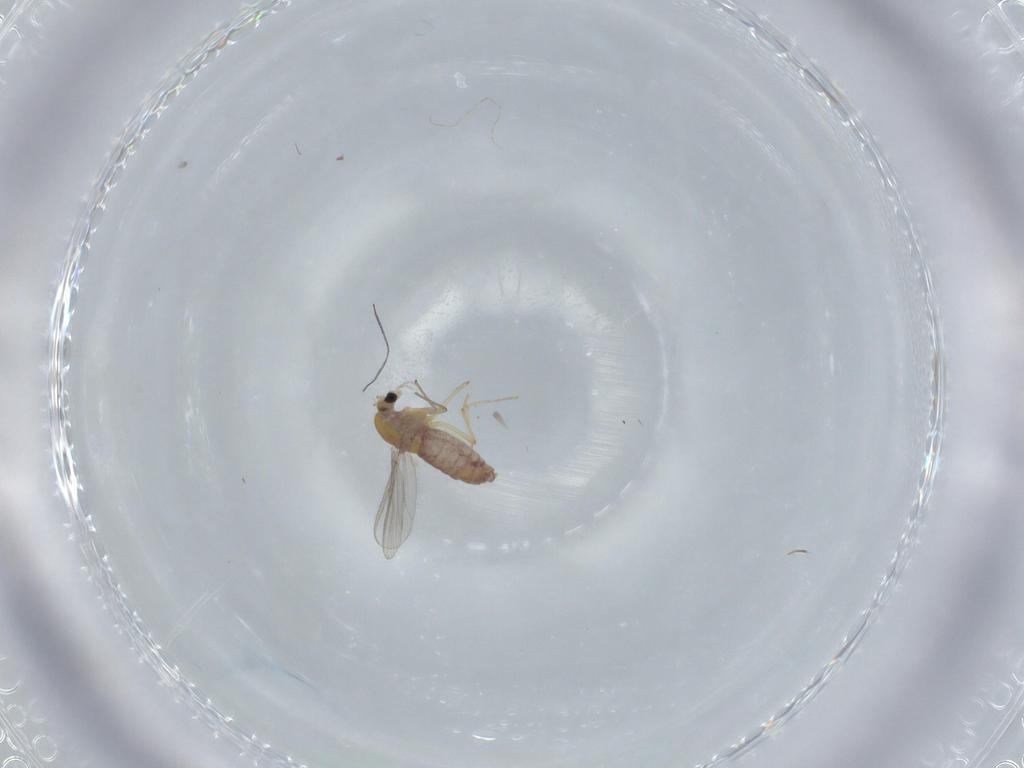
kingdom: Animalia
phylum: Arthropoda
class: Insecta
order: Diptera
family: Chironomidae
